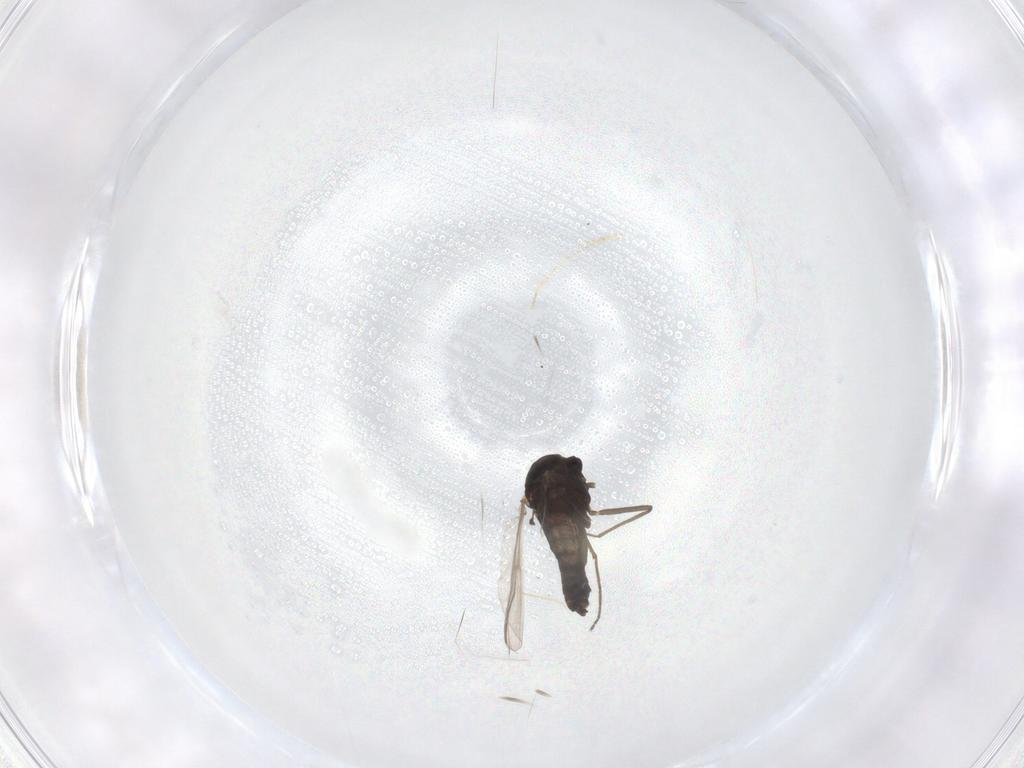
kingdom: Animalia
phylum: Arthropoda
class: Insecta
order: Diptera
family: Chironomidae
